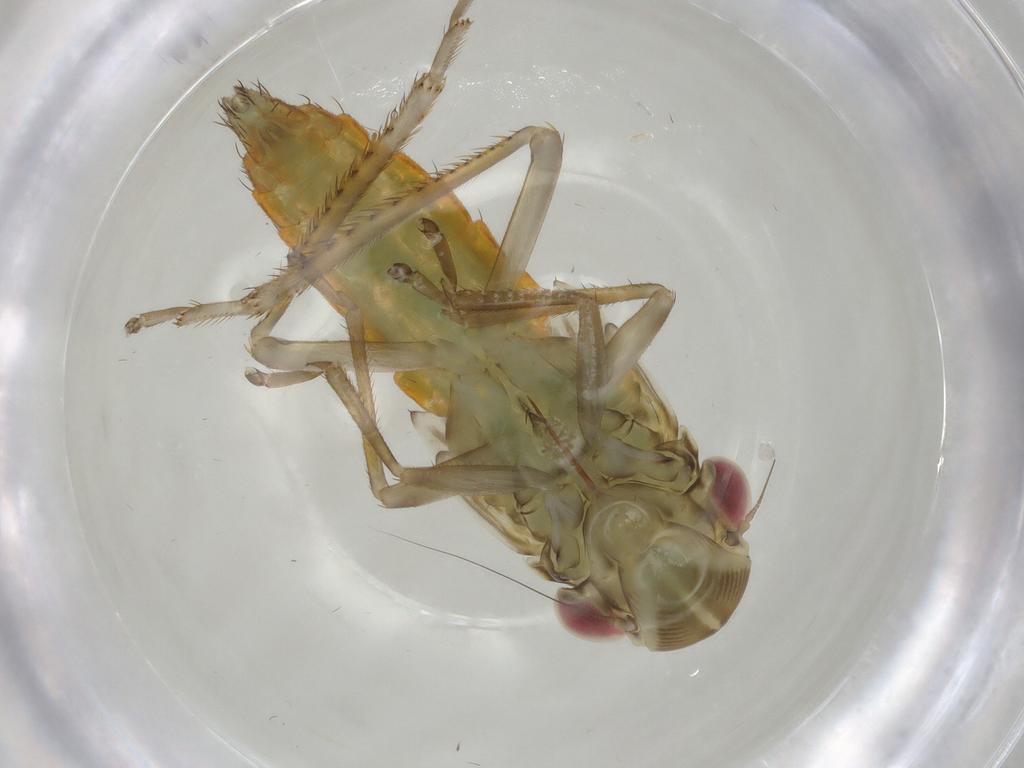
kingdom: Animalia
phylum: Arthropoda
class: Insecta
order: Hemiptera
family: Cicadellidae
